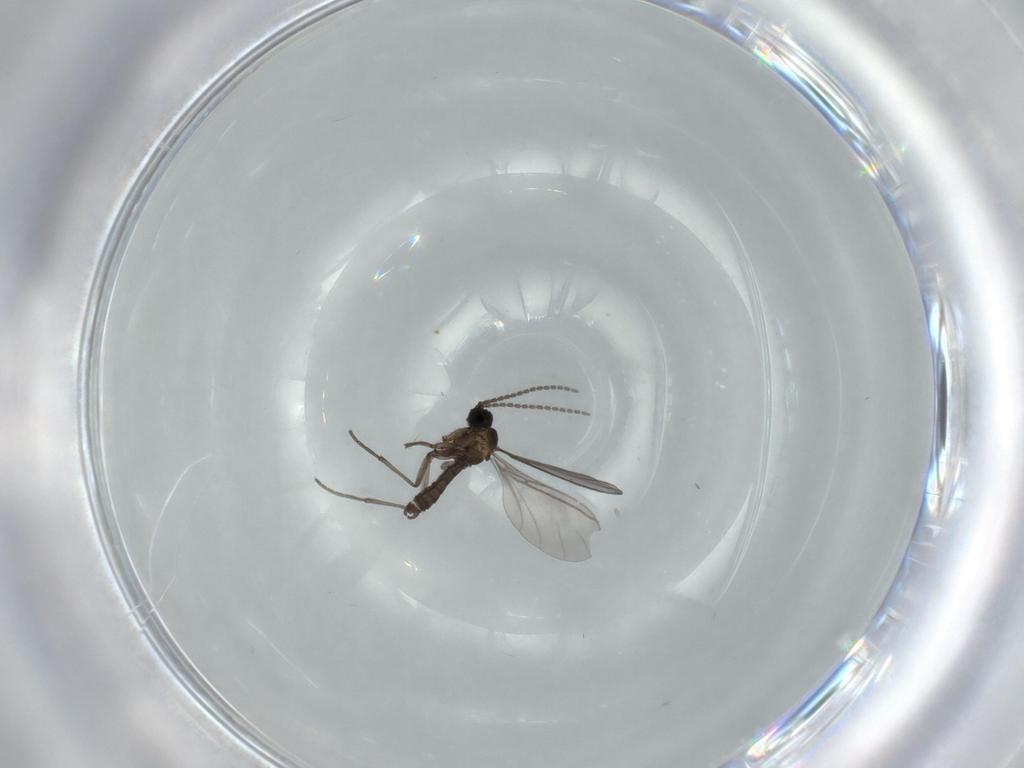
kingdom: Animalia
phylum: Arthropoda
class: Insecta
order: Diptera
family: Sciaridae
